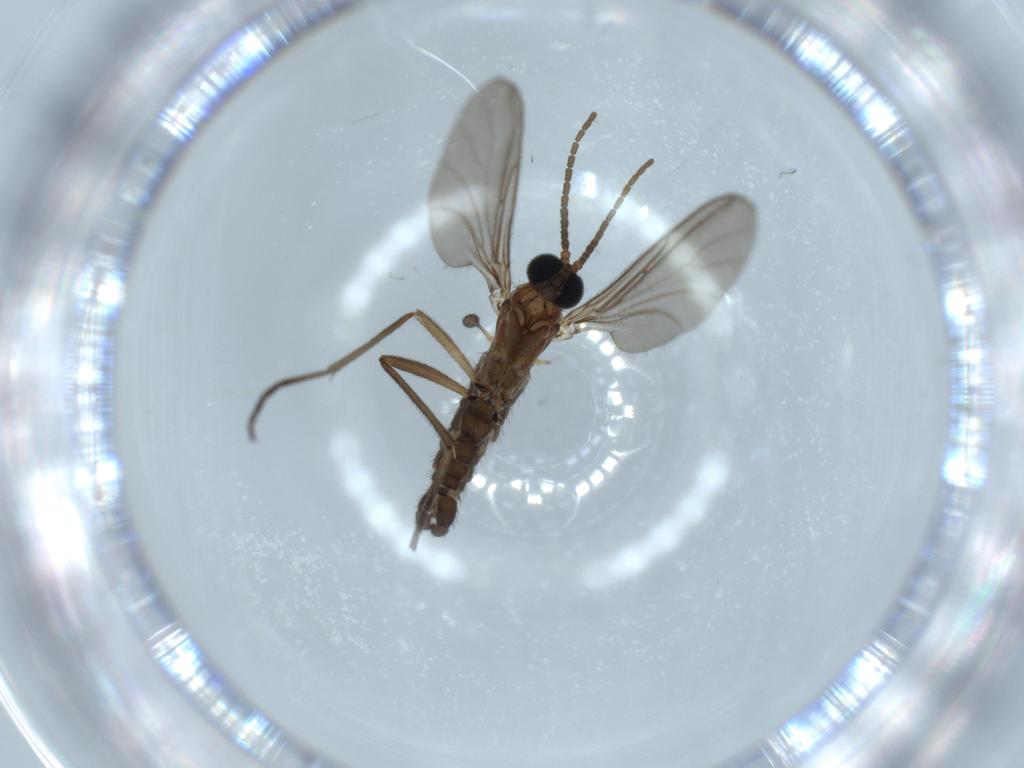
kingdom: Animalia
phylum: Arthropoda
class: Insecta
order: Diptera
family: Sciaridae
